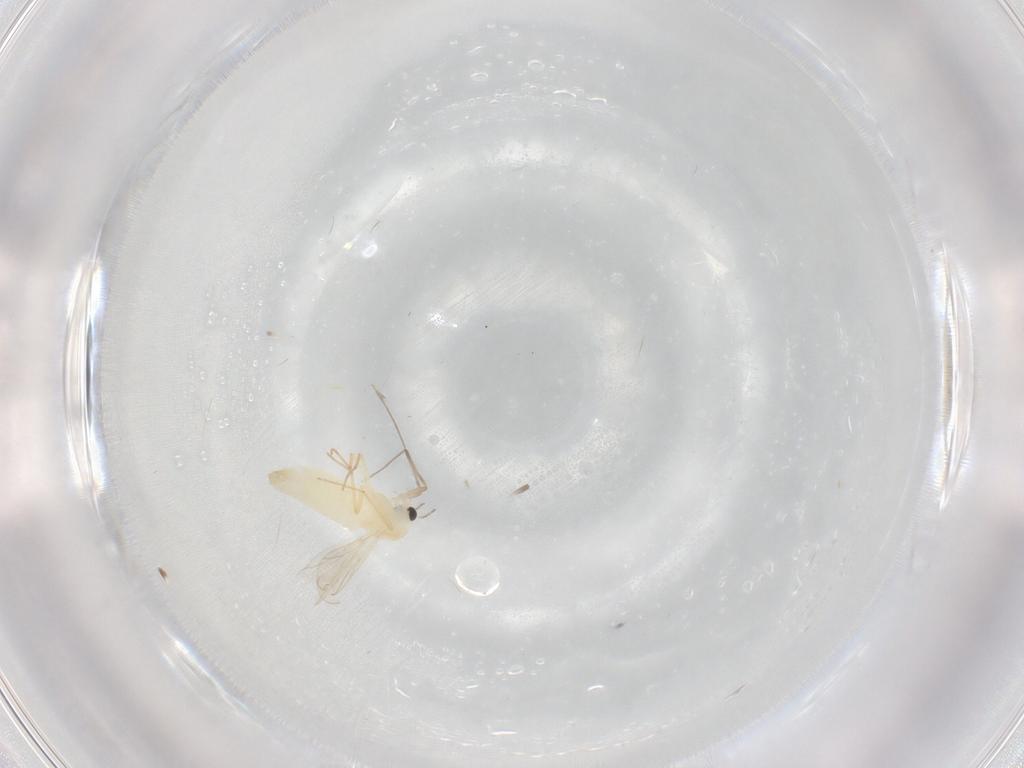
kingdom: Animalia
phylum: Arthropoda
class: Insecta
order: Diptera
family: Chironomidae
